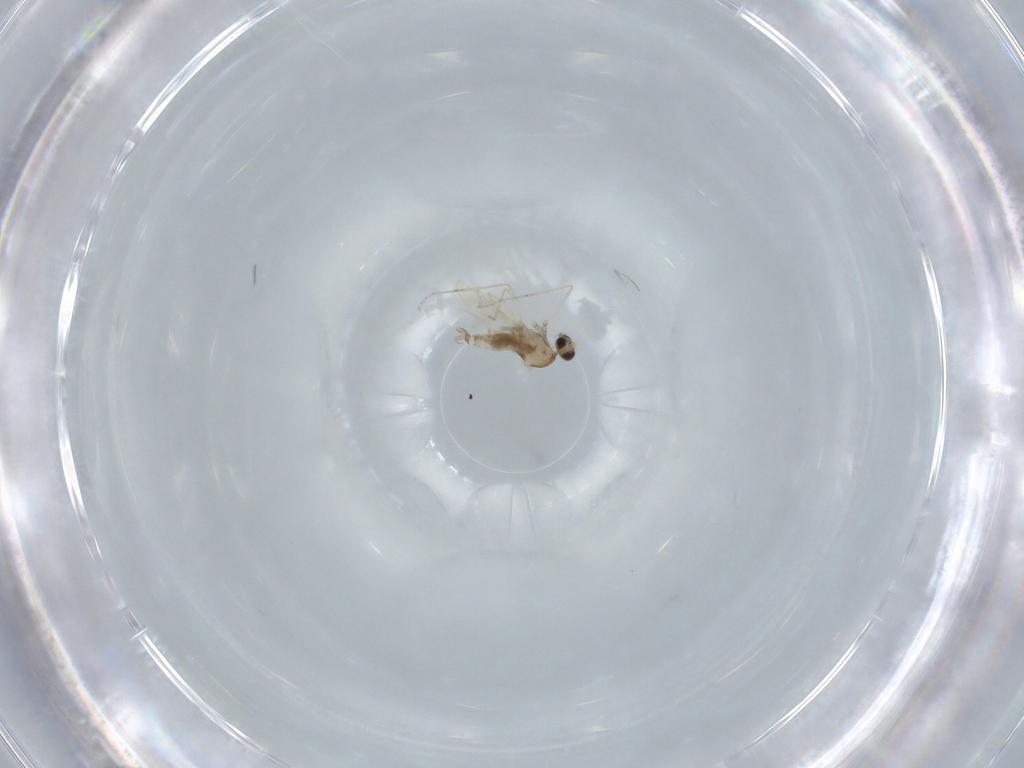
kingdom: Animalia
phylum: Arthropoda
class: Insecta
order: Diptera
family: Cecidomyiidae
